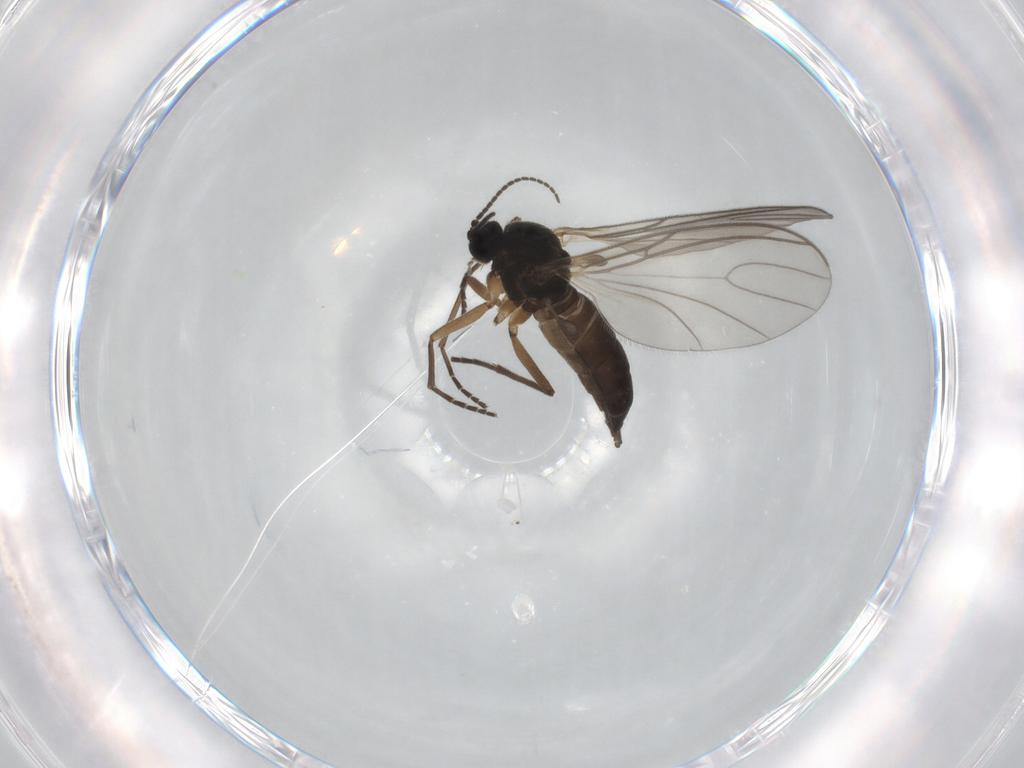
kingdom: Animalia
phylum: Arthropoda
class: Insecta
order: Diptera
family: Sciaridae
